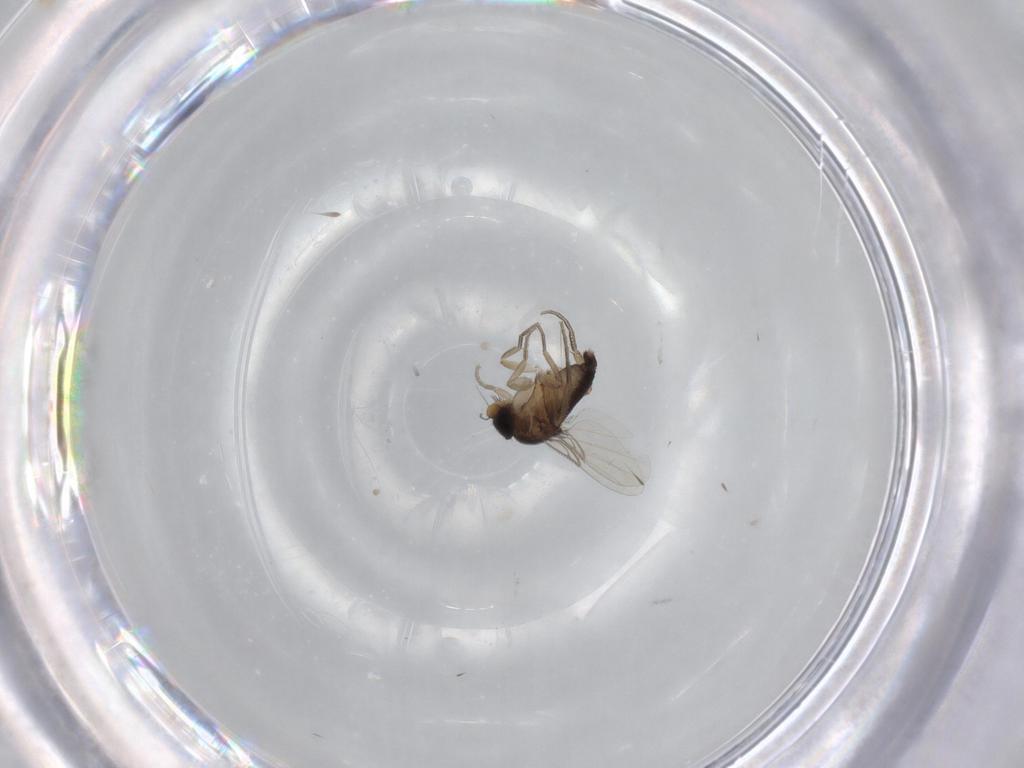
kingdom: Animalia
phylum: Arthropoda
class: Insecta
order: Diptera
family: Phoridae
